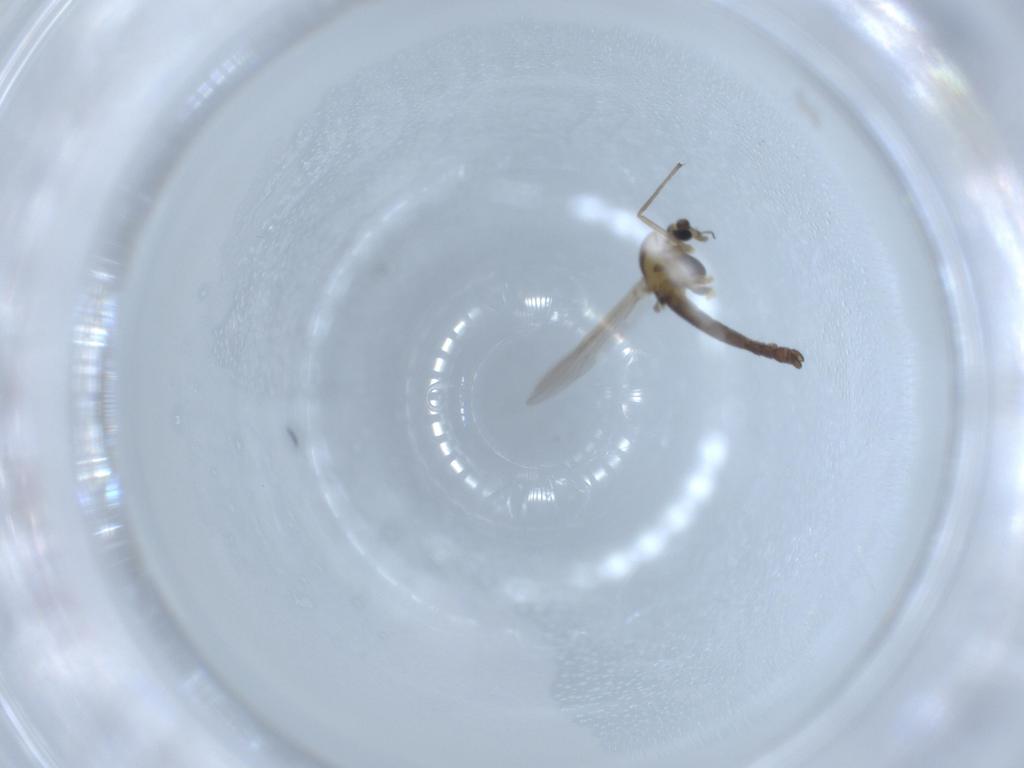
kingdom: Animalia
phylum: Arthropoda
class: Insecta
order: Diptera
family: Chironomidae
